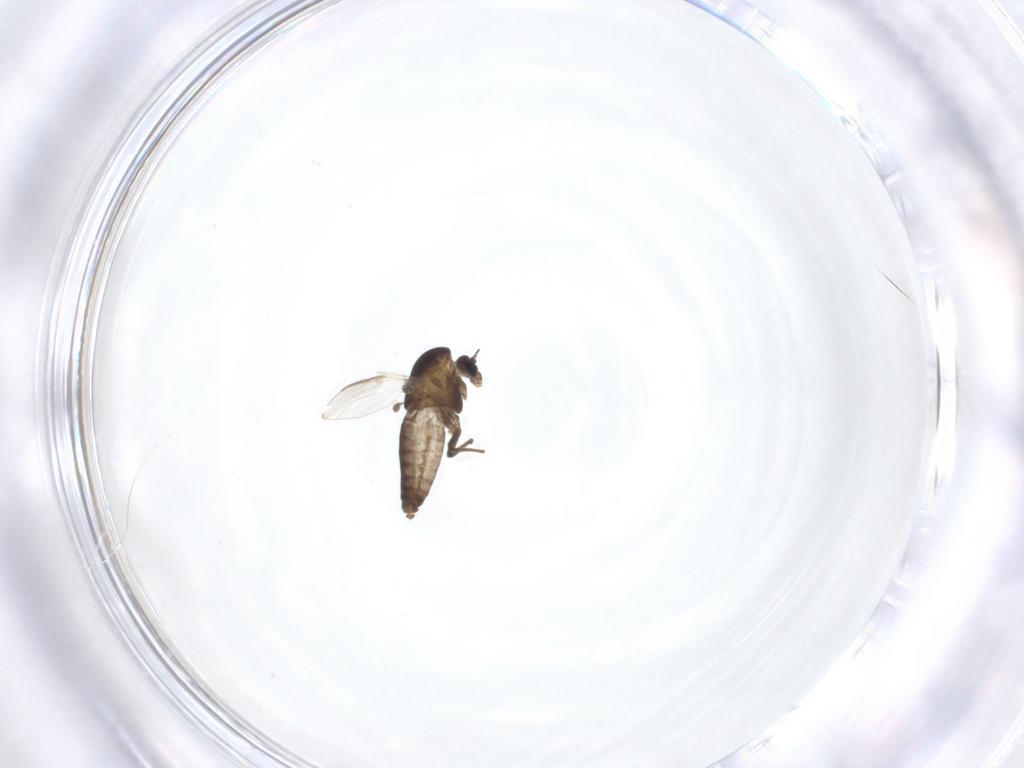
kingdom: Animalia
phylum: Arthropoda
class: Insecta
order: Diptera
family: Chironomidae
